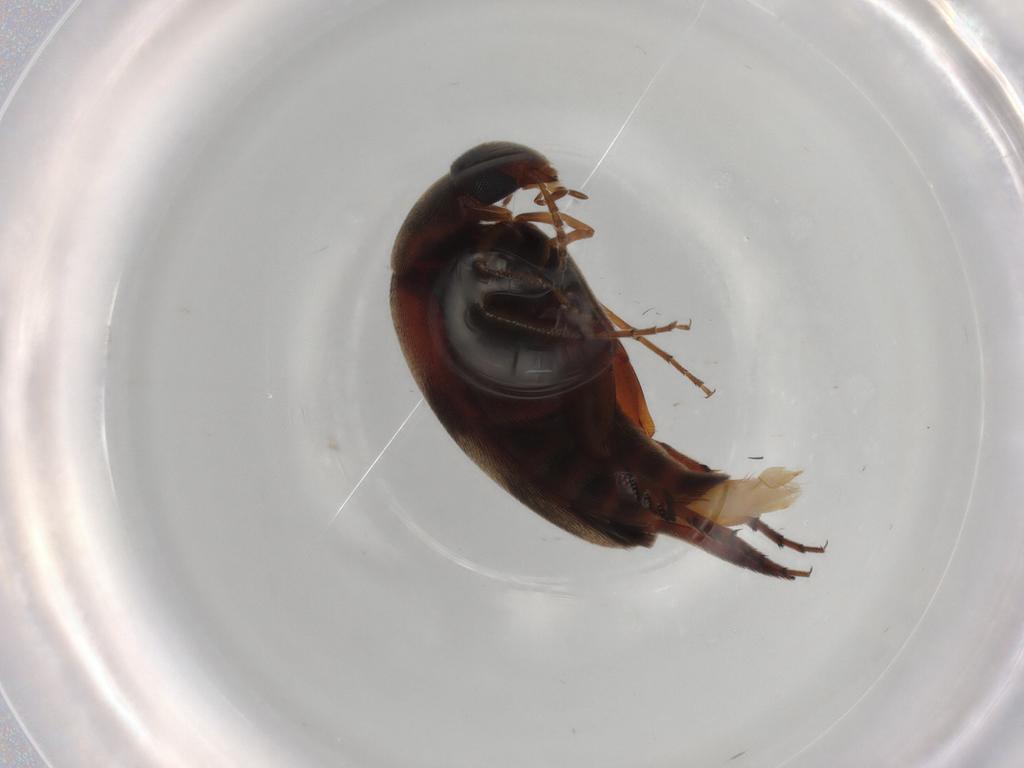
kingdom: Animalia
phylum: Arthropoda
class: Insecta
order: Coleoptera
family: Mordellidae
